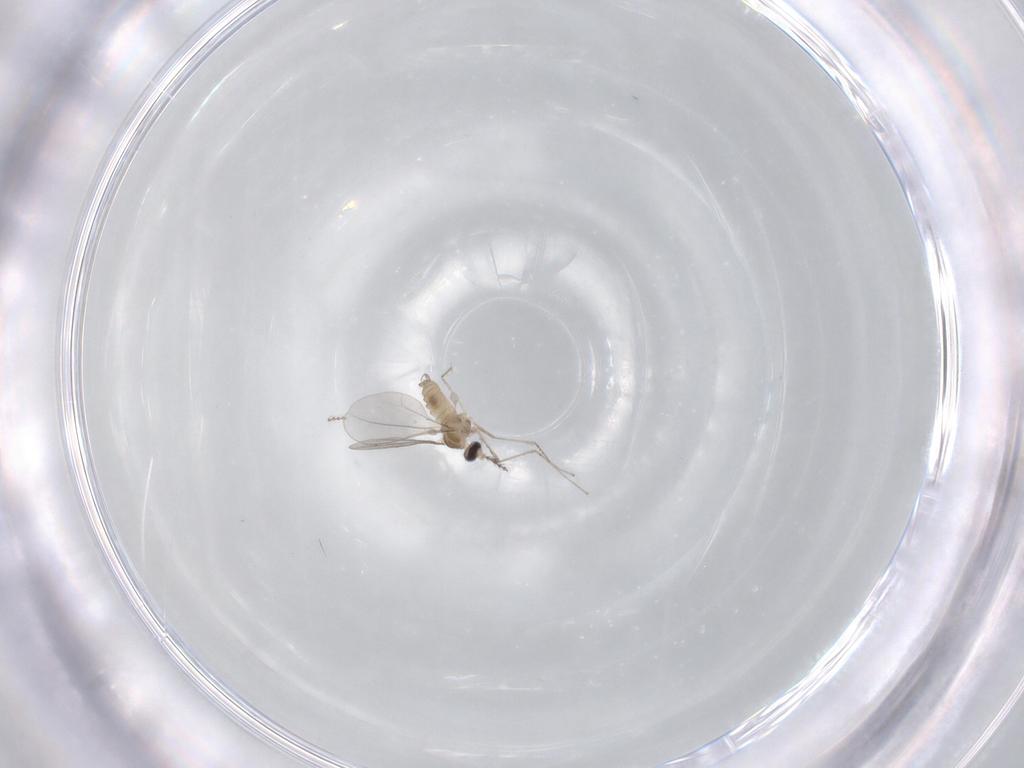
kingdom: Animalia
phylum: Arthropoda
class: Insecta
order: Diptera
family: Cecidomyiidae
